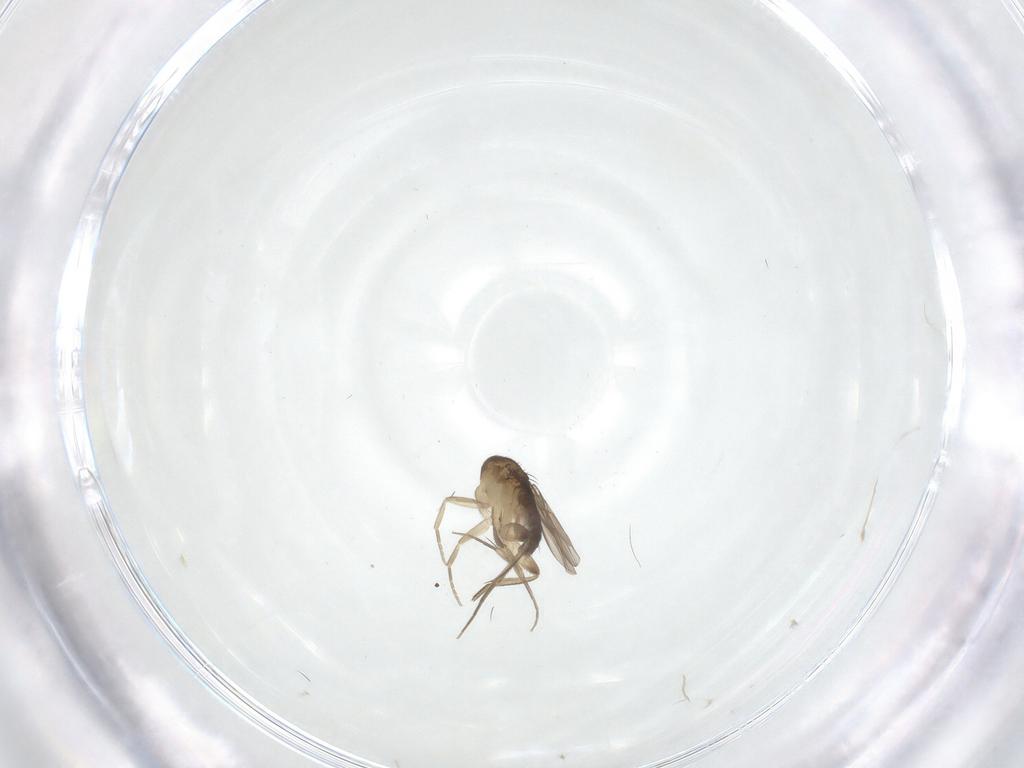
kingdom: Animalia
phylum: Arthropoda
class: Insecta
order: Diptera
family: Phoridae
